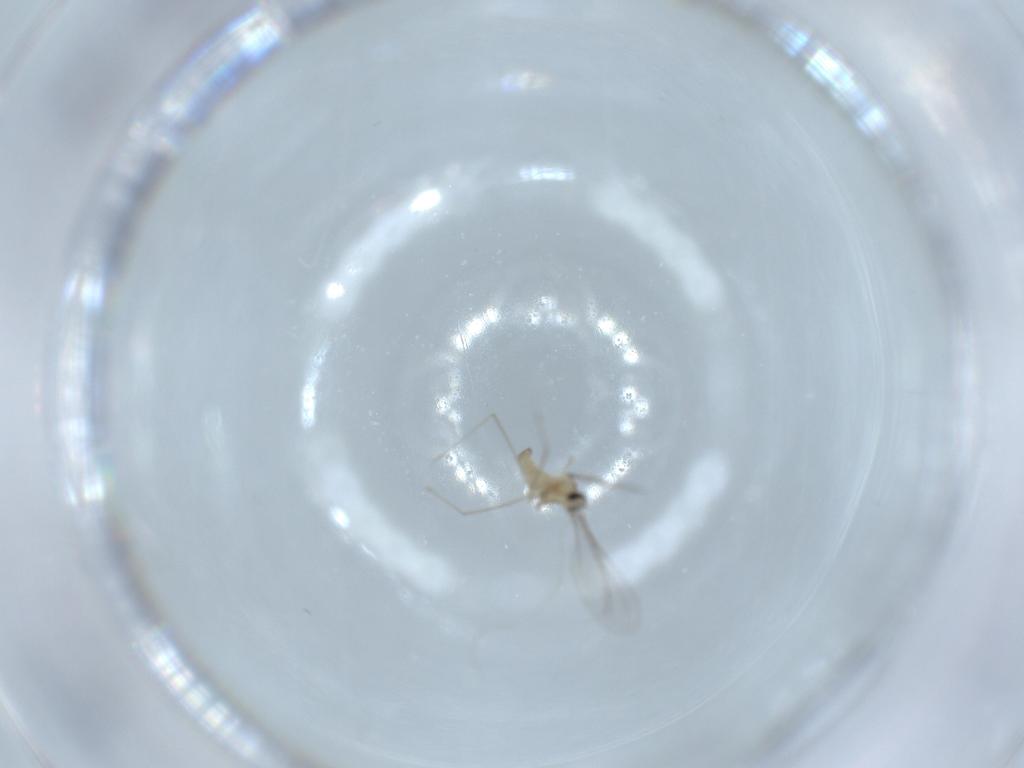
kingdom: Animalia
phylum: Arthropoda
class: Insecta
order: Diptera
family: Cecidomyiidae
